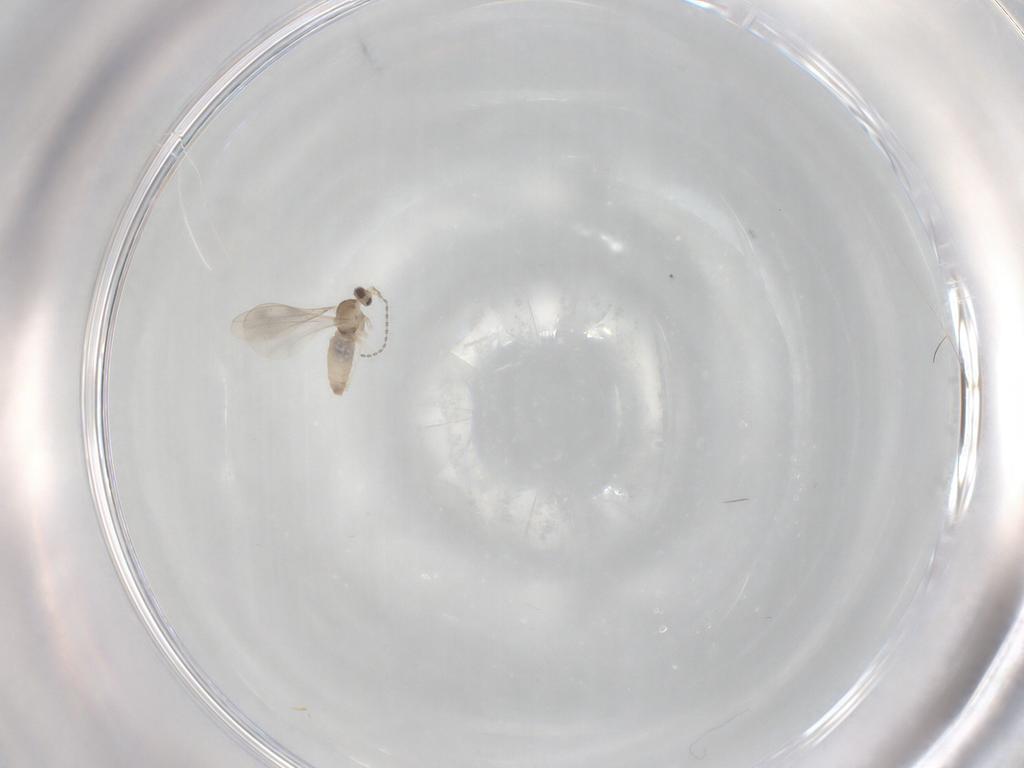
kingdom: Animalia
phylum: Arthropoda
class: Insecta
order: Diptera
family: Cecidomyiidae
